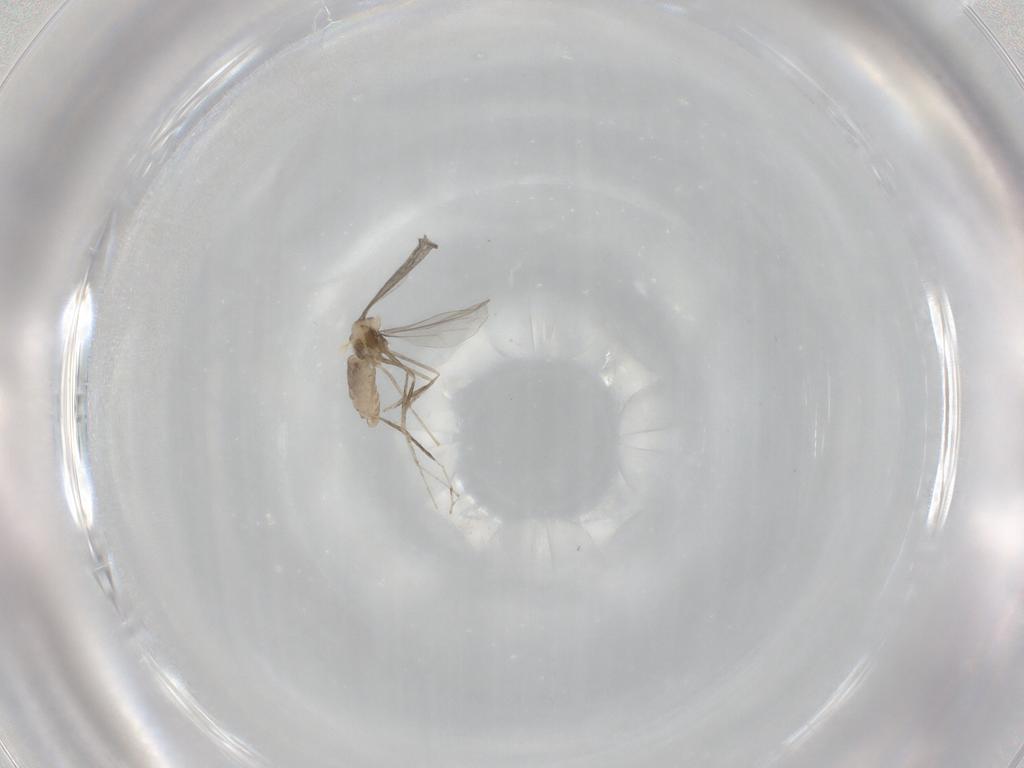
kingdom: Animalia
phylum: Arthropoda
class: Insecta
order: Diptera
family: Cecidomyiidae
